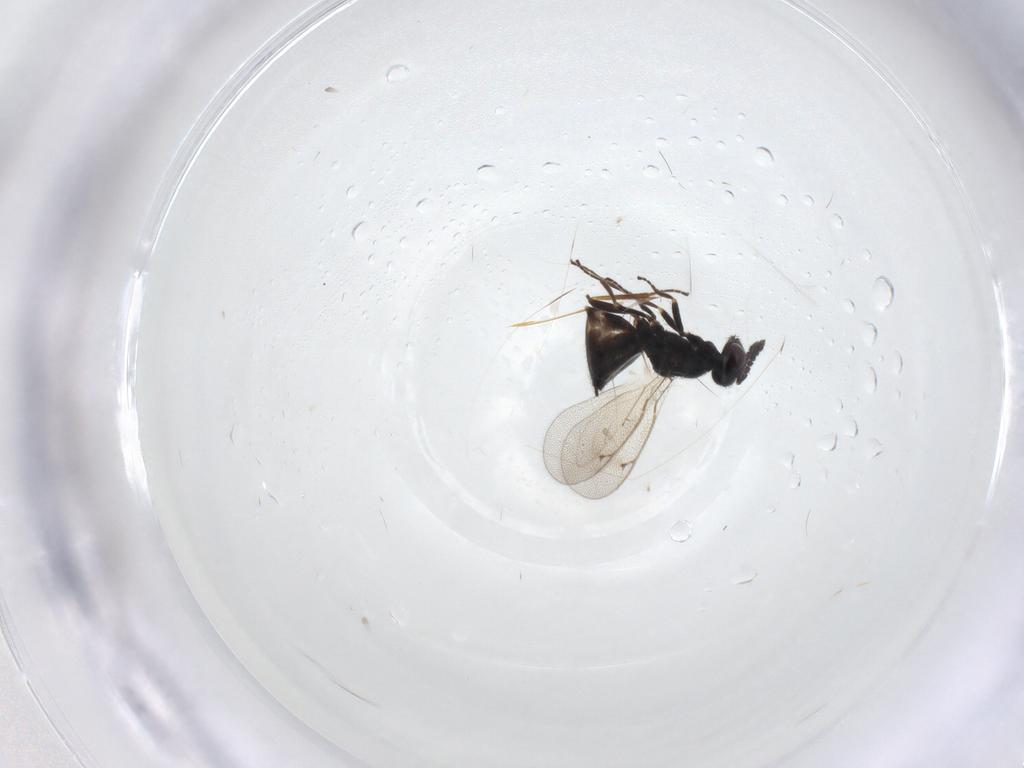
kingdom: Animalia
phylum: Arthropoda
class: Insecta
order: Hymenoptera
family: Eulophidae
